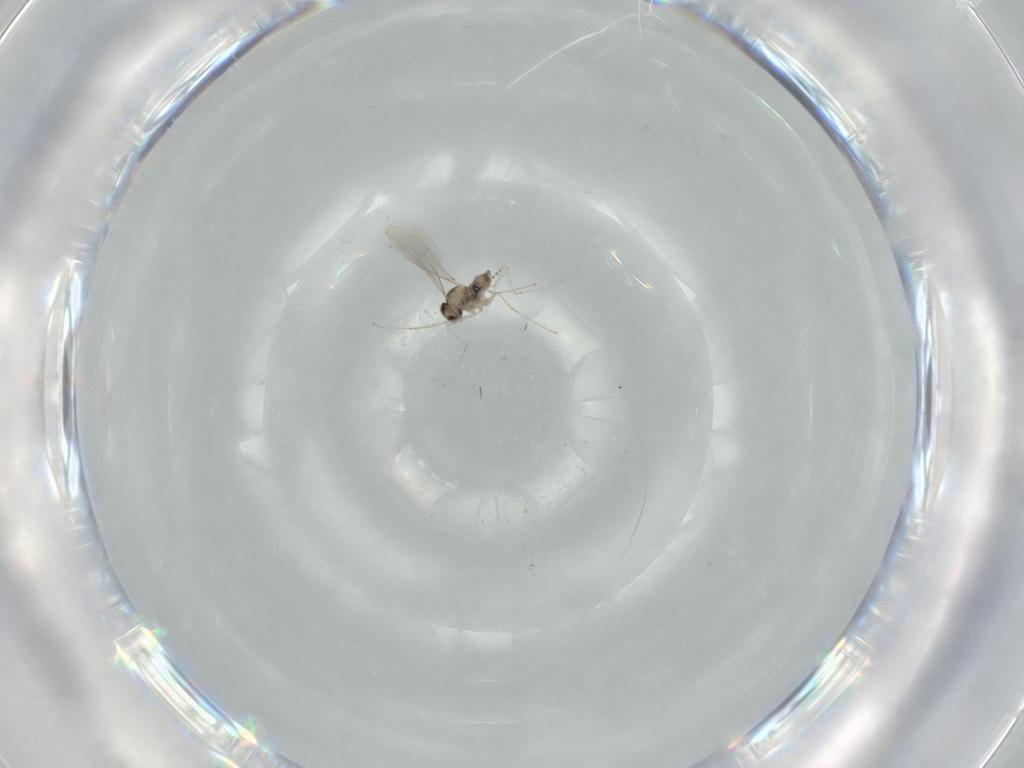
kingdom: Animalia
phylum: Arthropoda
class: Insecta
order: Diptera
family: Cecidomyiidae
